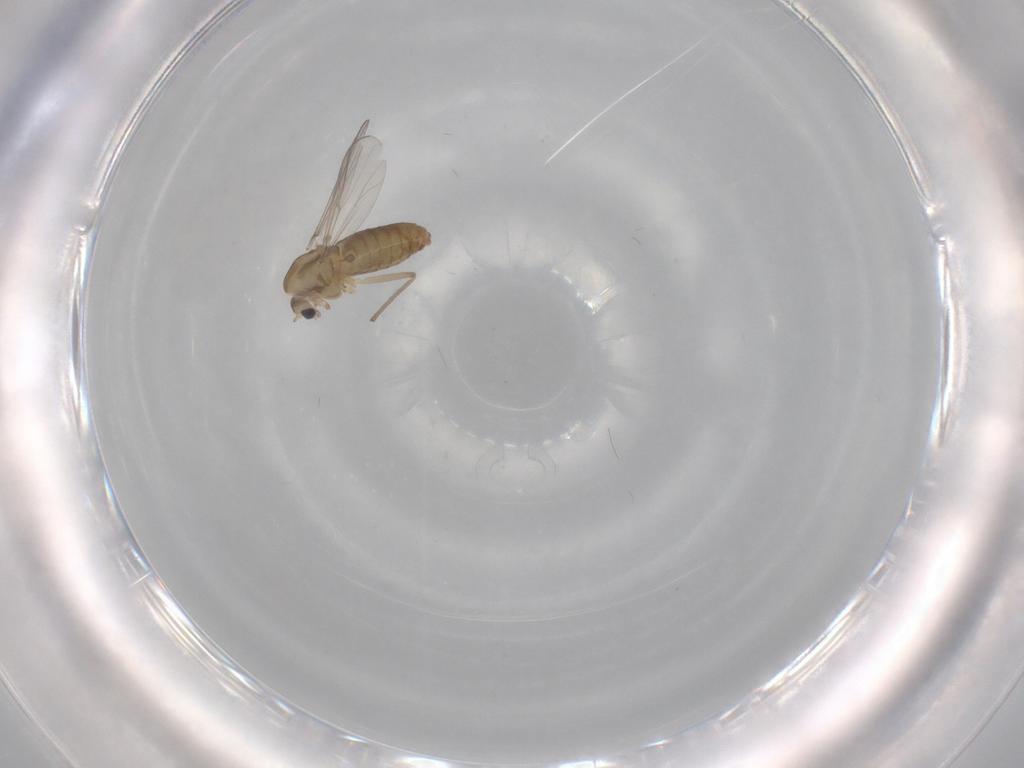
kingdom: Animalia
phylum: Arthropoda
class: Insecta
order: Diptera
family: Chironomidae
